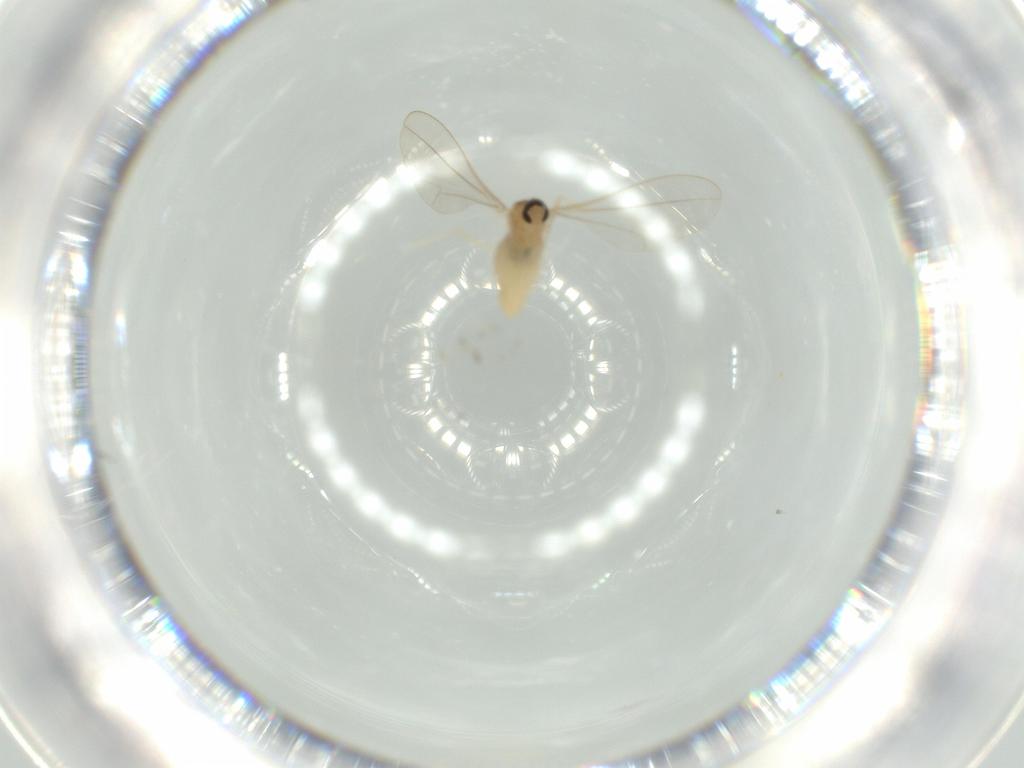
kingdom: Animalia
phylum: Arthropoda
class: Insecta
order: Diptera
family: Cecidomyiidae
